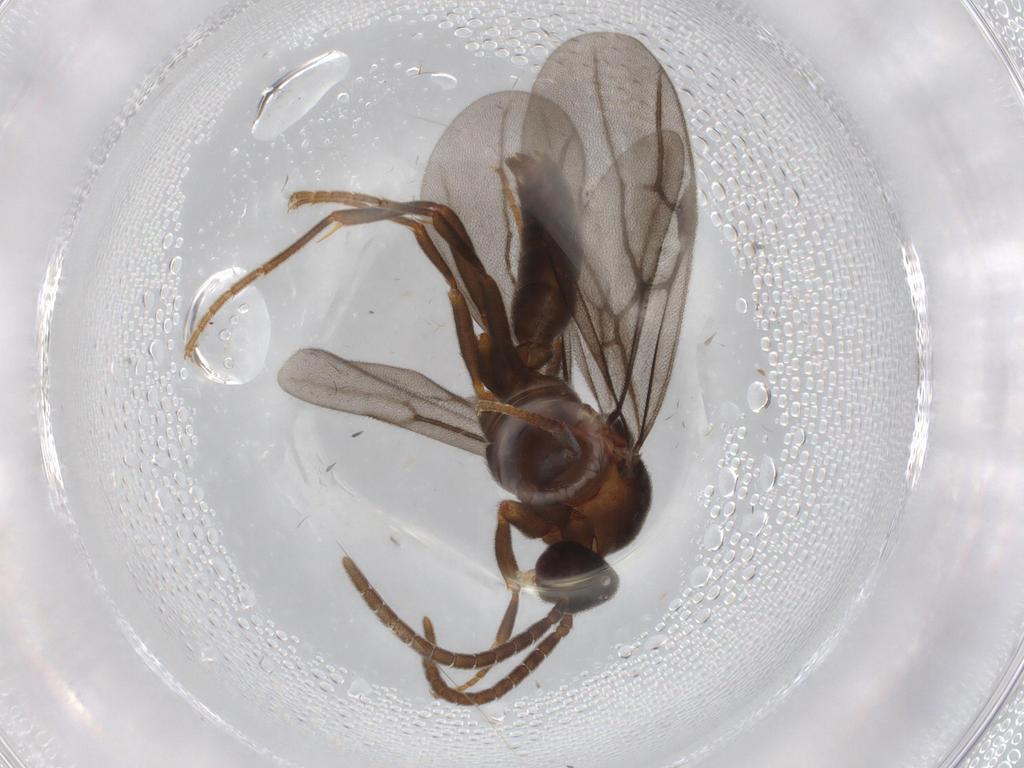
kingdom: Animalia
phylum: Arthropoda
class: Insecta
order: Hymenoptera
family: Formicidae
